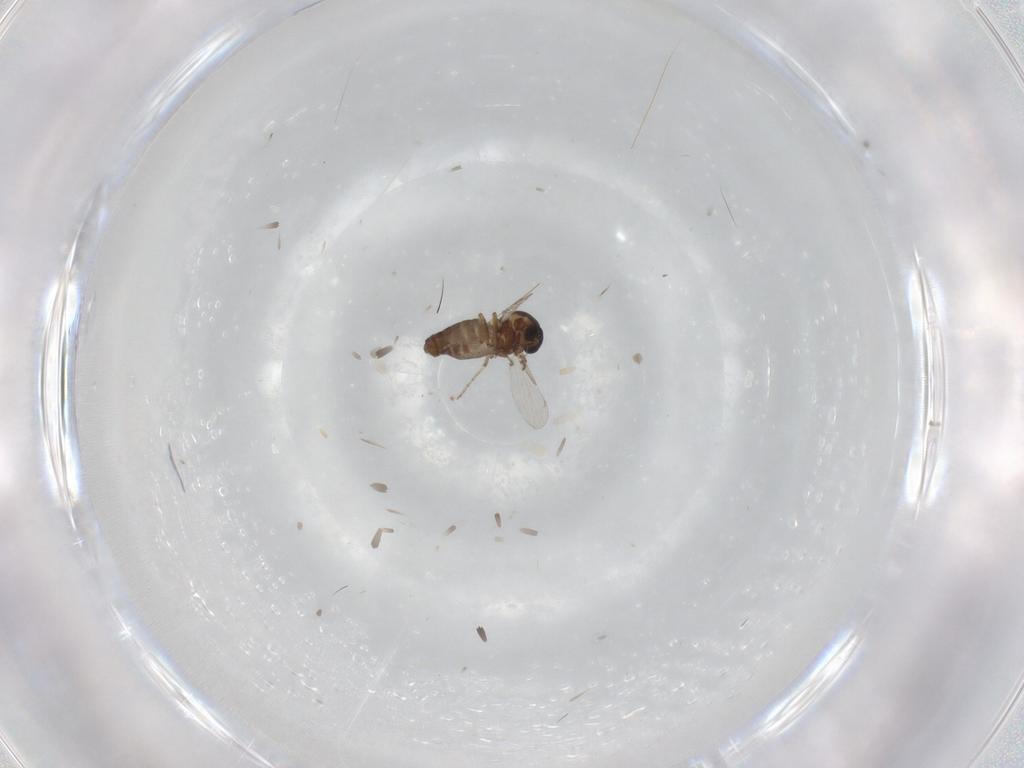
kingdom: Animalia
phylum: Arthropoda
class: Insecta
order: Diptera
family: Ceratopogonidae
